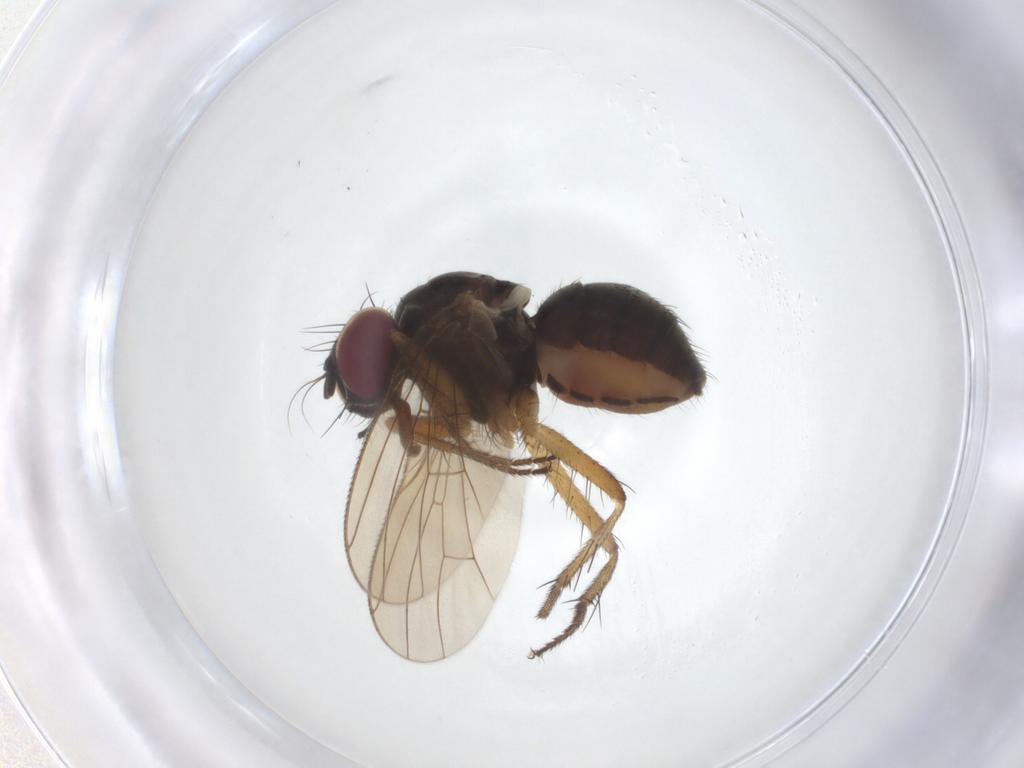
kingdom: Animalia
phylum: Arthropoda
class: Insecta
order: Diptera
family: Muscidae
